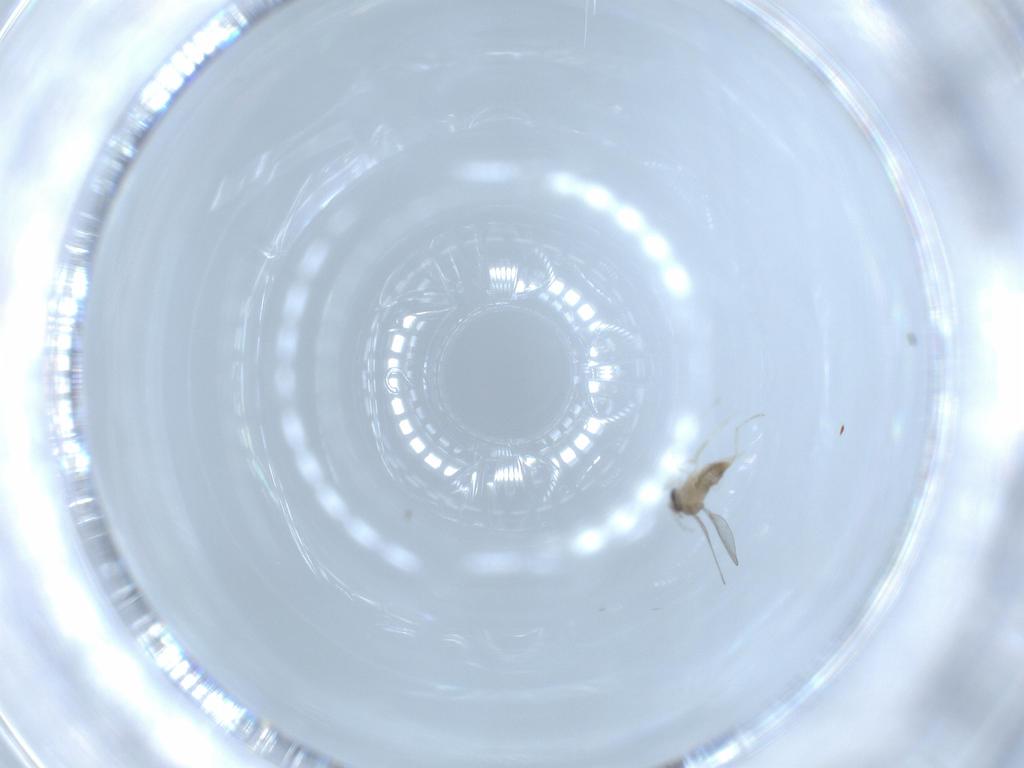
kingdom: Animalia
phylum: Arthropoda
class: Insecta
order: Diptera
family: Cecidomyiidae
